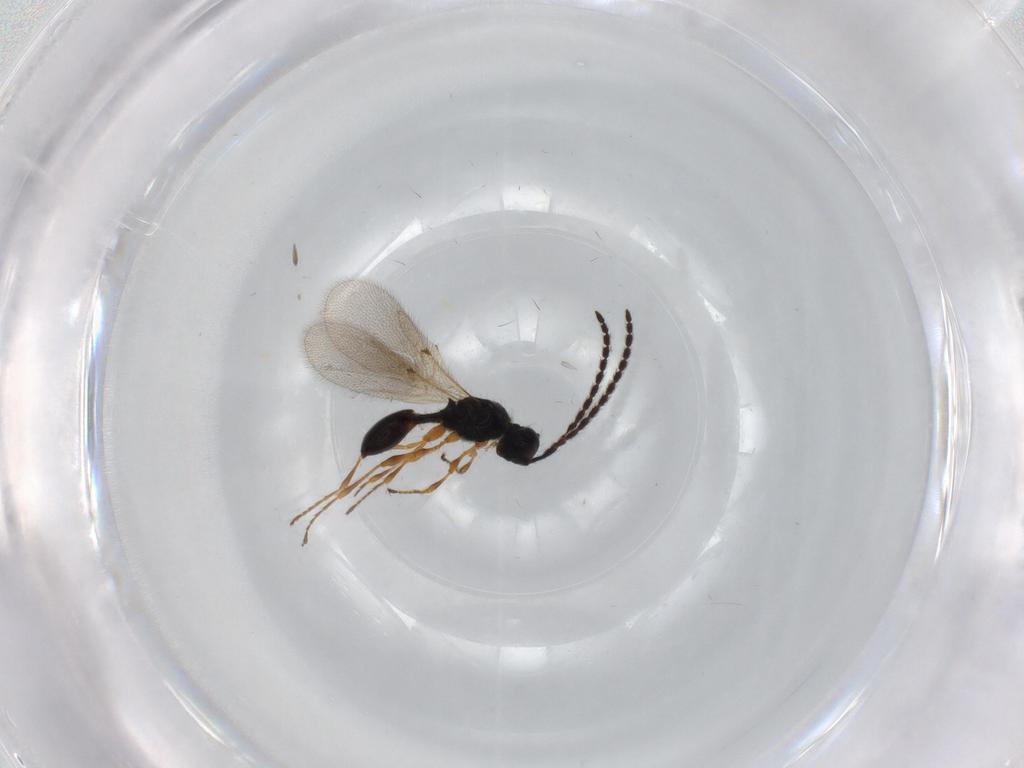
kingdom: Animalia
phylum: Arthropoda
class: Insecta
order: Hymenoptera
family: Diapriidae
